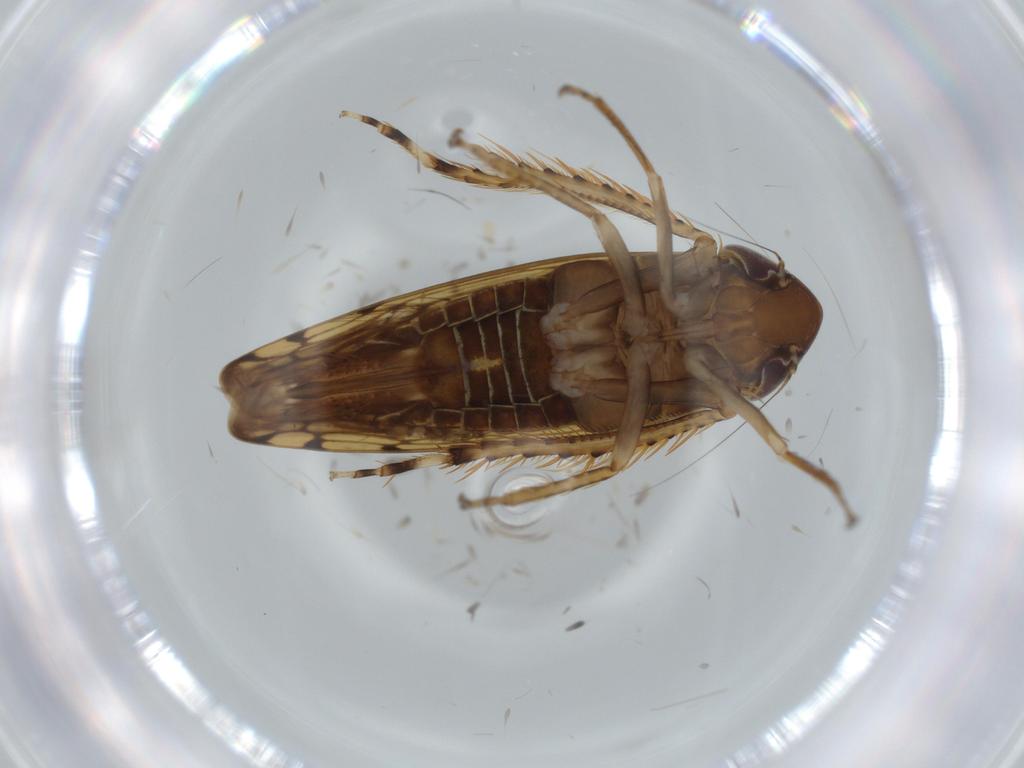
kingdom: Animalia
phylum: Arthropoda
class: Insecta
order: Hemiptera
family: Cicadellidae
